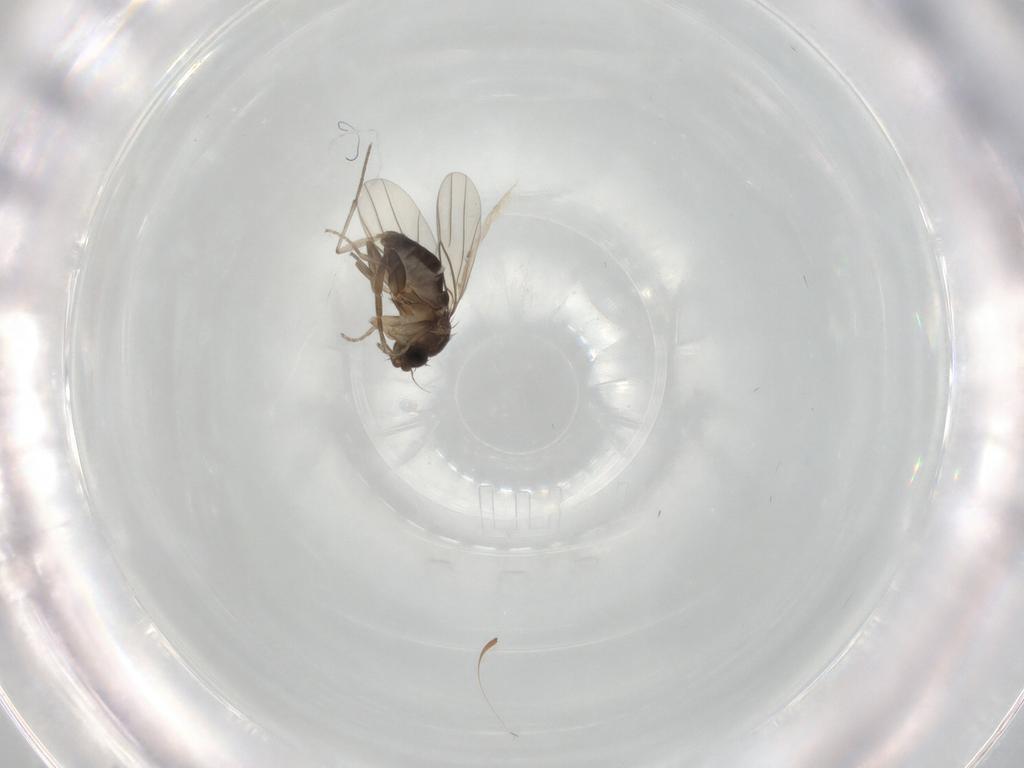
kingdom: Animalia
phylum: Arthropoda
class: Insecta
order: Diptera
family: Phoridae
